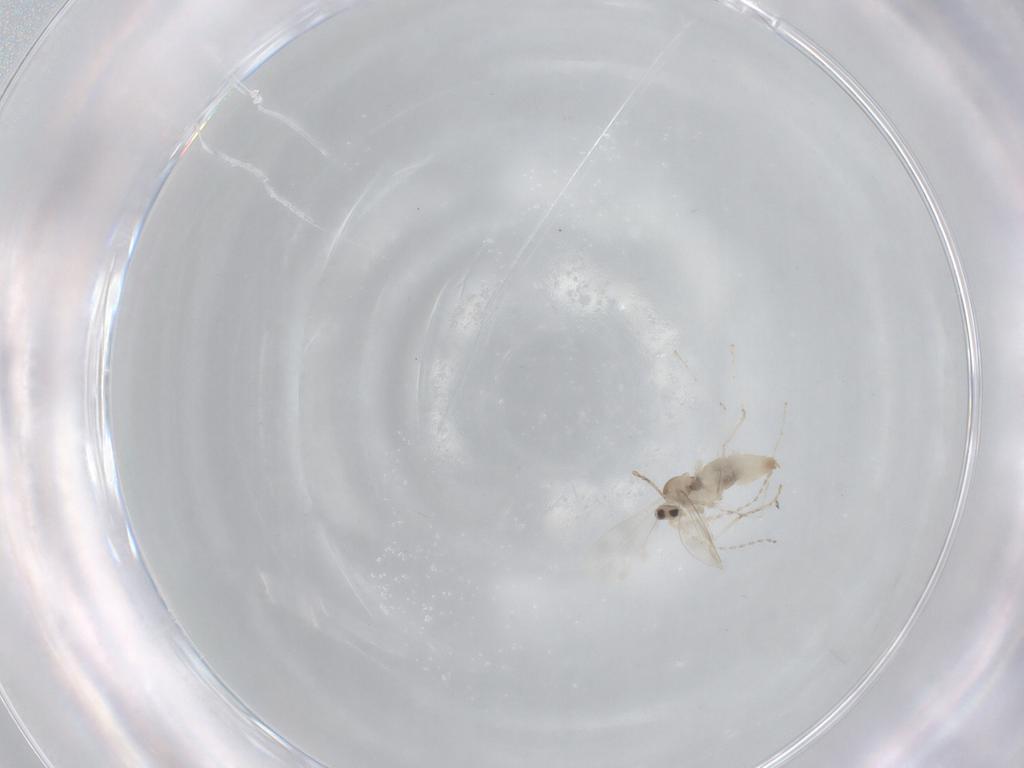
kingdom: Animalia
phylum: Arthropoda
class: Insecta
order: Diptera
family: Cecidomyiidae
